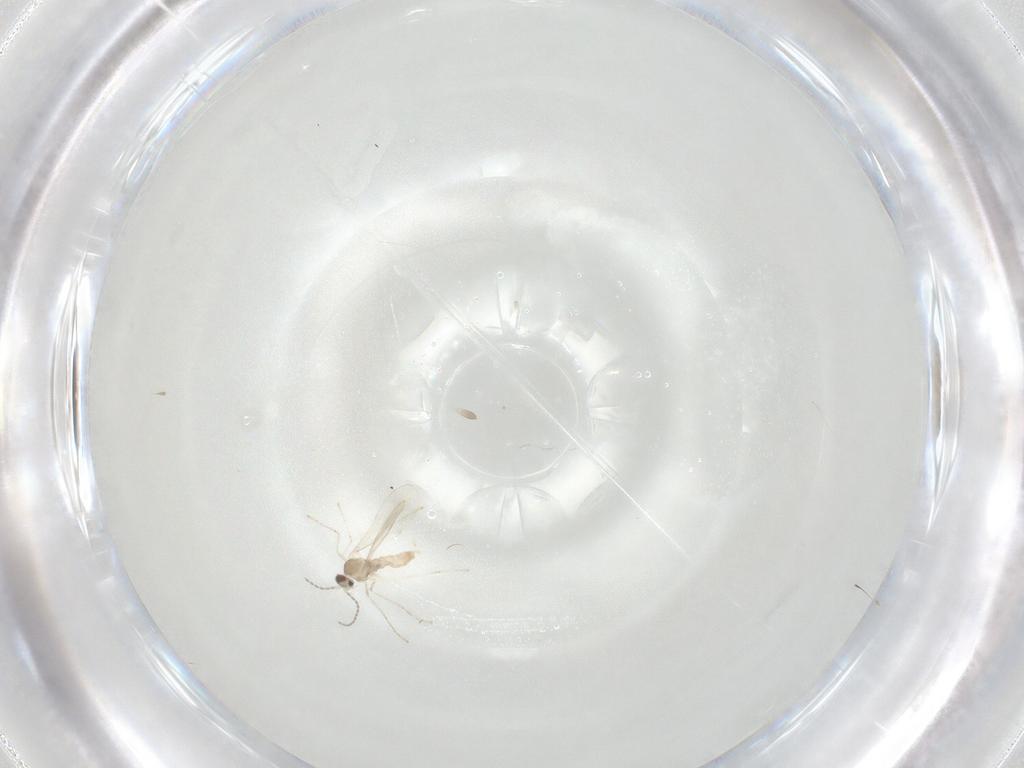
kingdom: Animalia
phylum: Arthropoda
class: Insecta
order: Diptera
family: Cecidomyiidae
